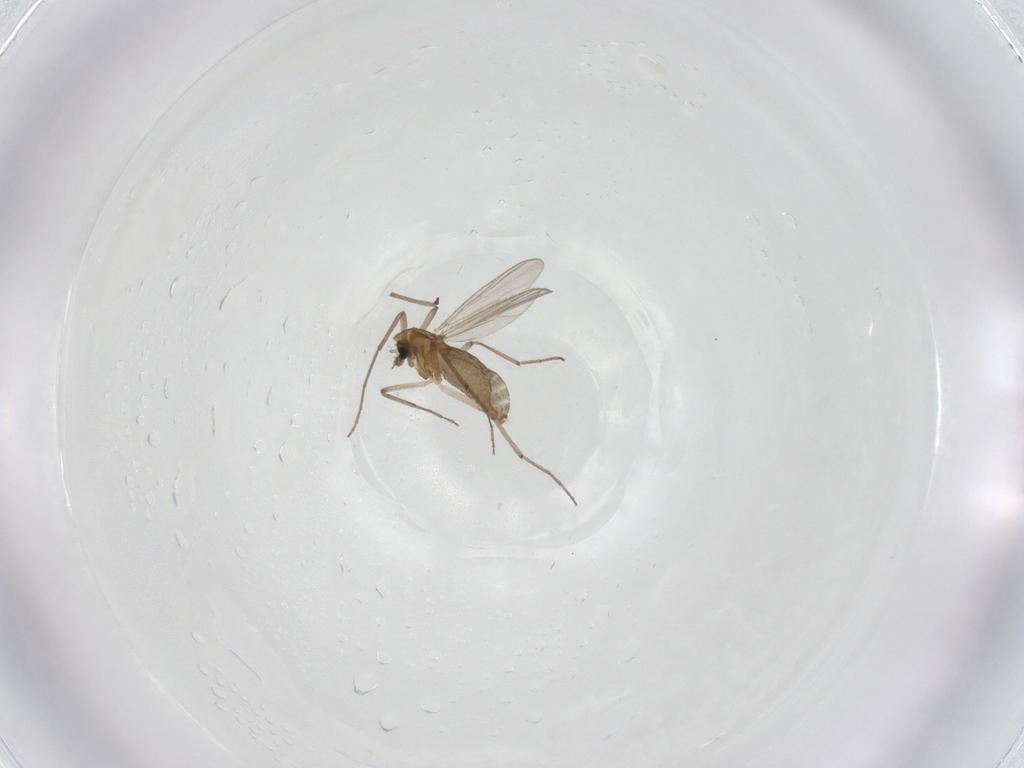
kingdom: Animalia
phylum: Arthropoda
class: Insecta
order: Diptera
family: Chironomidae
